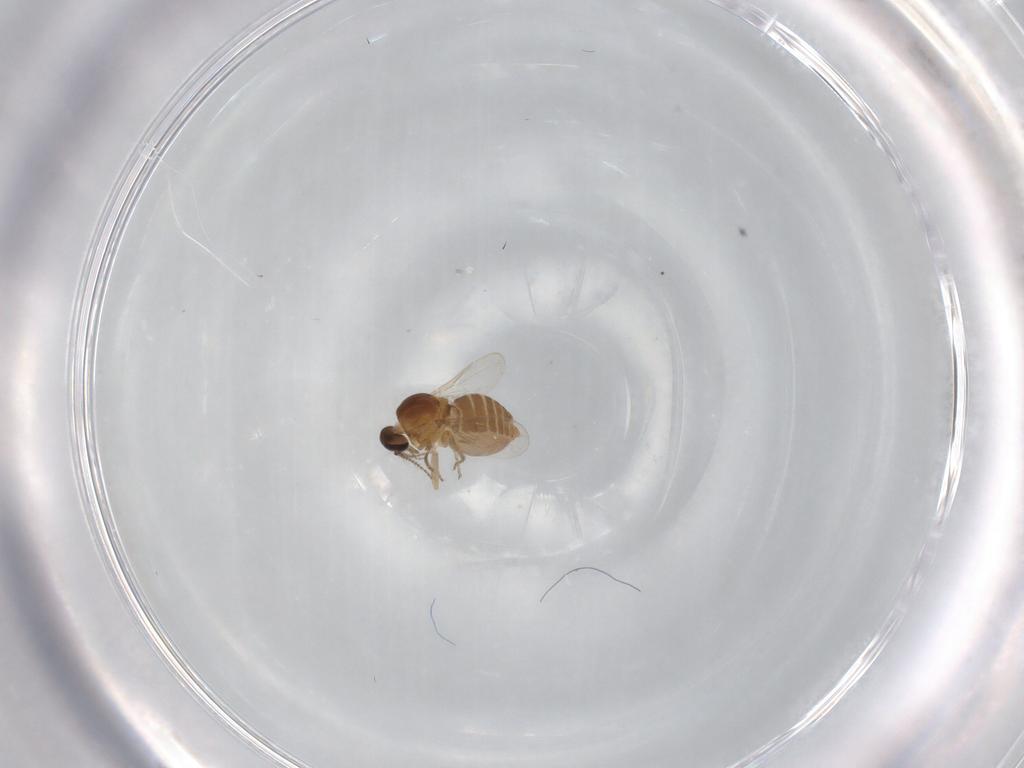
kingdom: Animalia
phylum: Arthropoda
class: Insecta
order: Diptera
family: Ceratopogonidae
